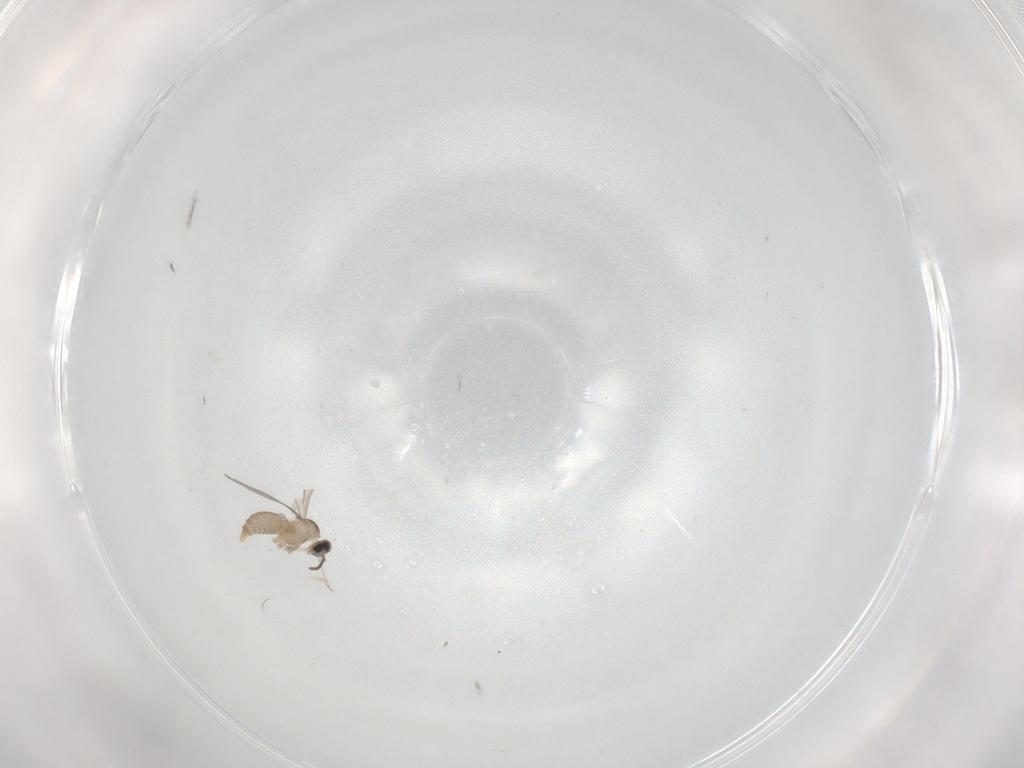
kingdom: Animalia
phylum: Arthropoda
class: Insecta
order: Diptera
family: Cecidomyiidae
